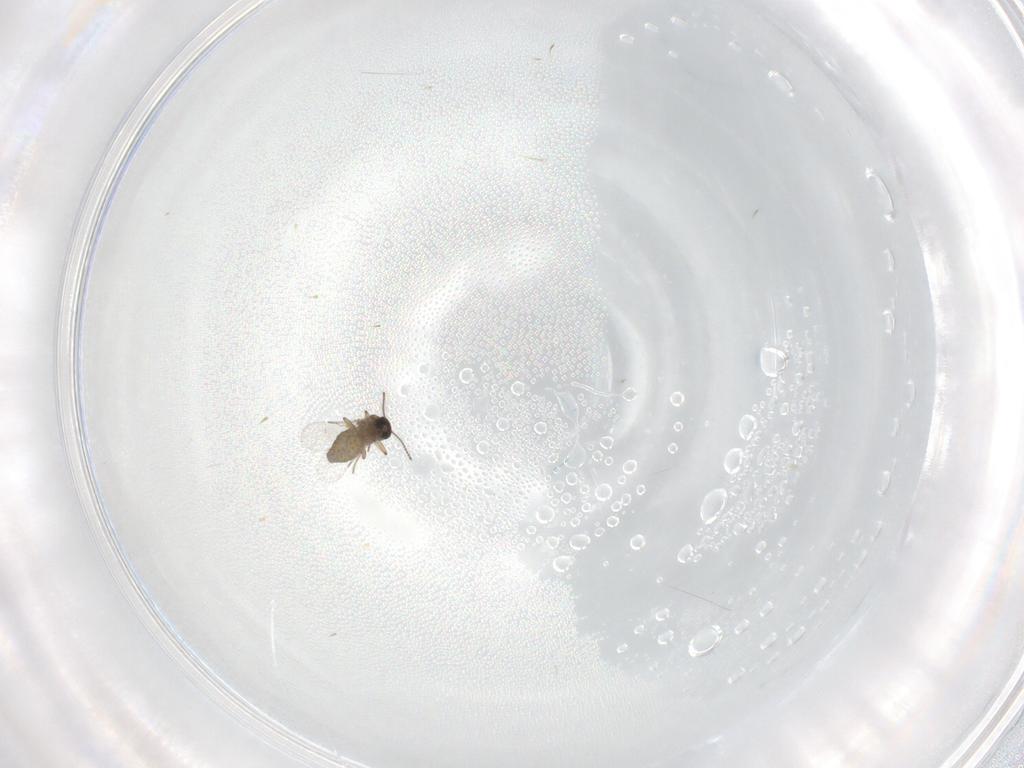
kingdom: Animalia
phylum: Arthropoda
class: Insecta
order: Diptera
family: Ceratopogonidae
